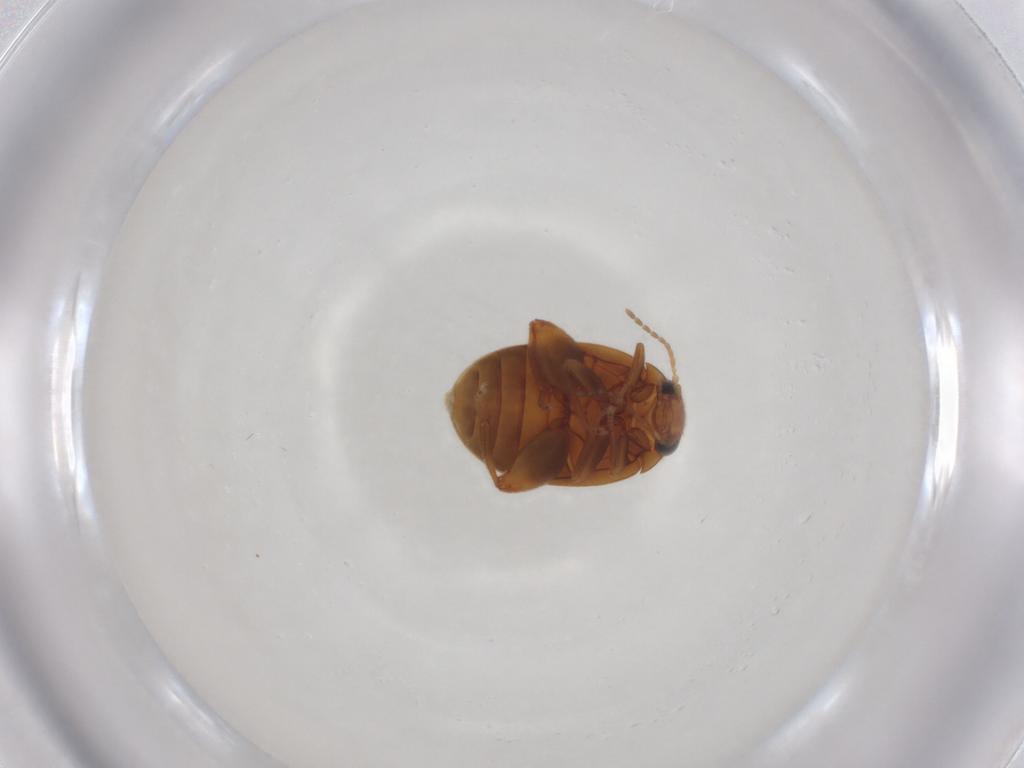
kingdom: Animalia
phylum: Arthropoda
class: Insecta
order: Coleoptera
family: Scirtidae
